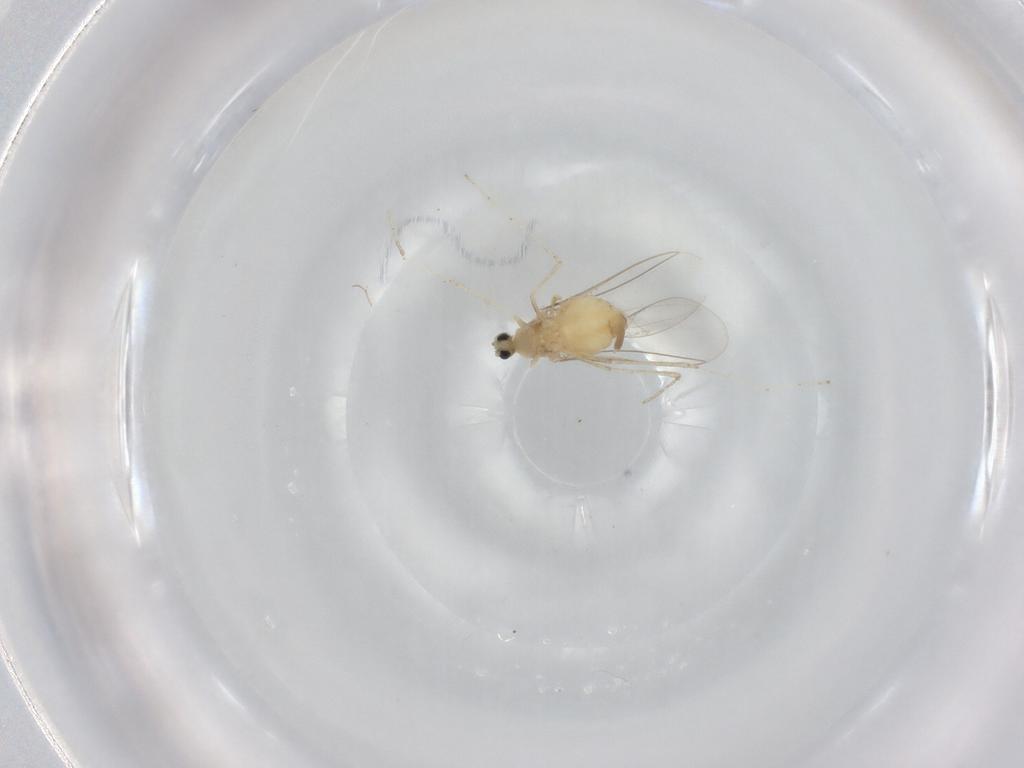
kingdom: Animalia
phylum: Arthropoda
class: Insecta
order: Diptera
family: Cecidomyiidae
